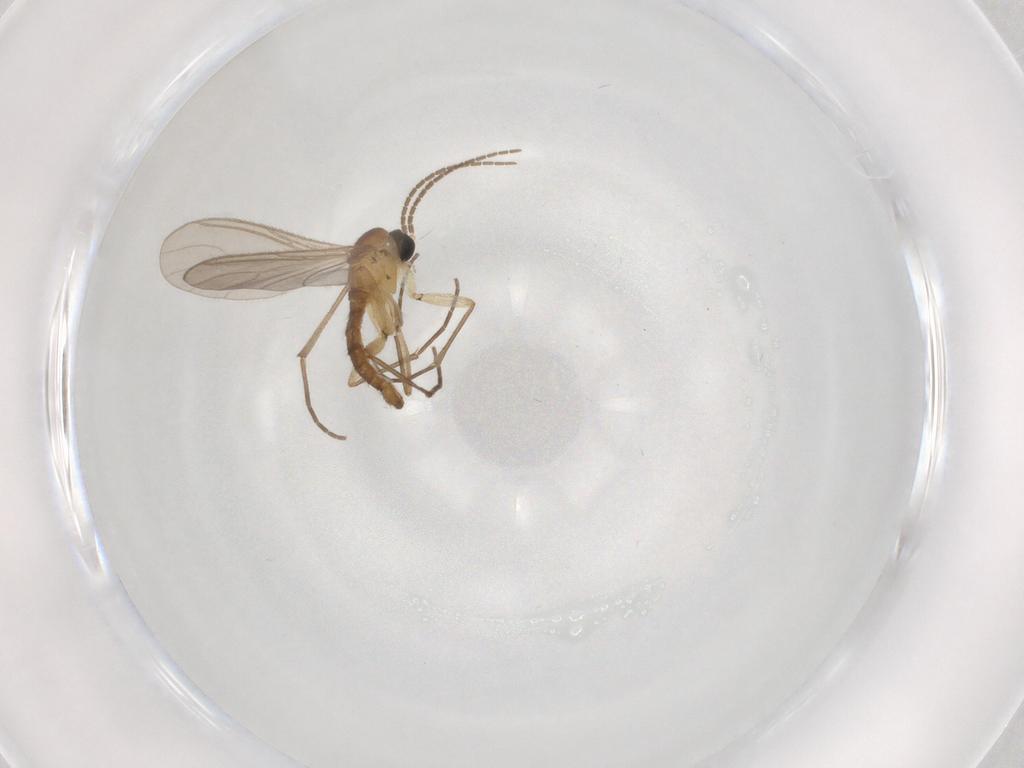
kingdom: Animalia
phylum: Arthropoda
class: Insecta
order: Diptera
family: Sciaridae
